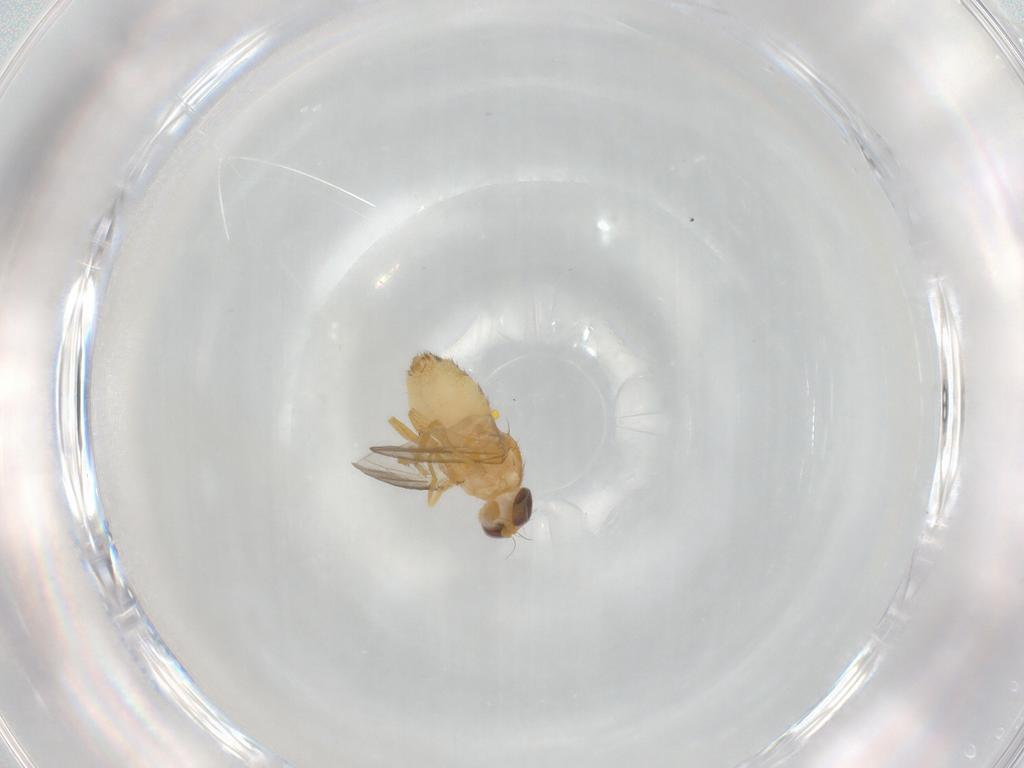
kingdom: Animalia
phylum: Arthropoda
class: Insecta
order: Diptera
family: Chyromyidae
